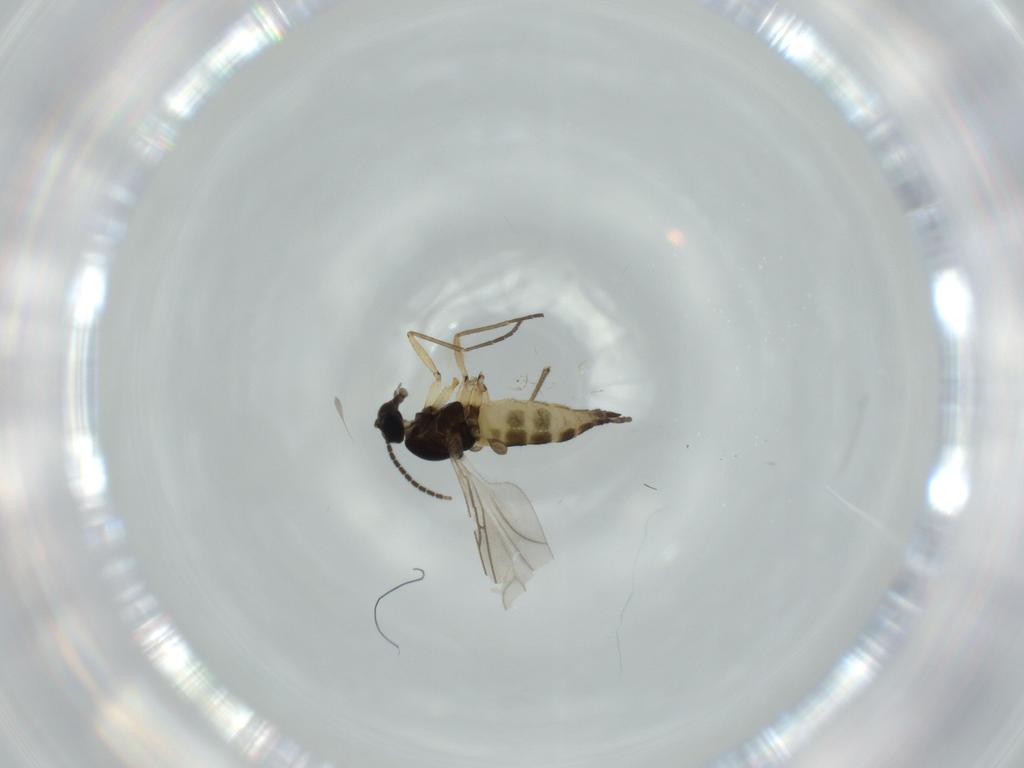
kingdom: Animalia
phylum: Arthropoda
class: Insecta
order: Diptera
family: Sciaridae
